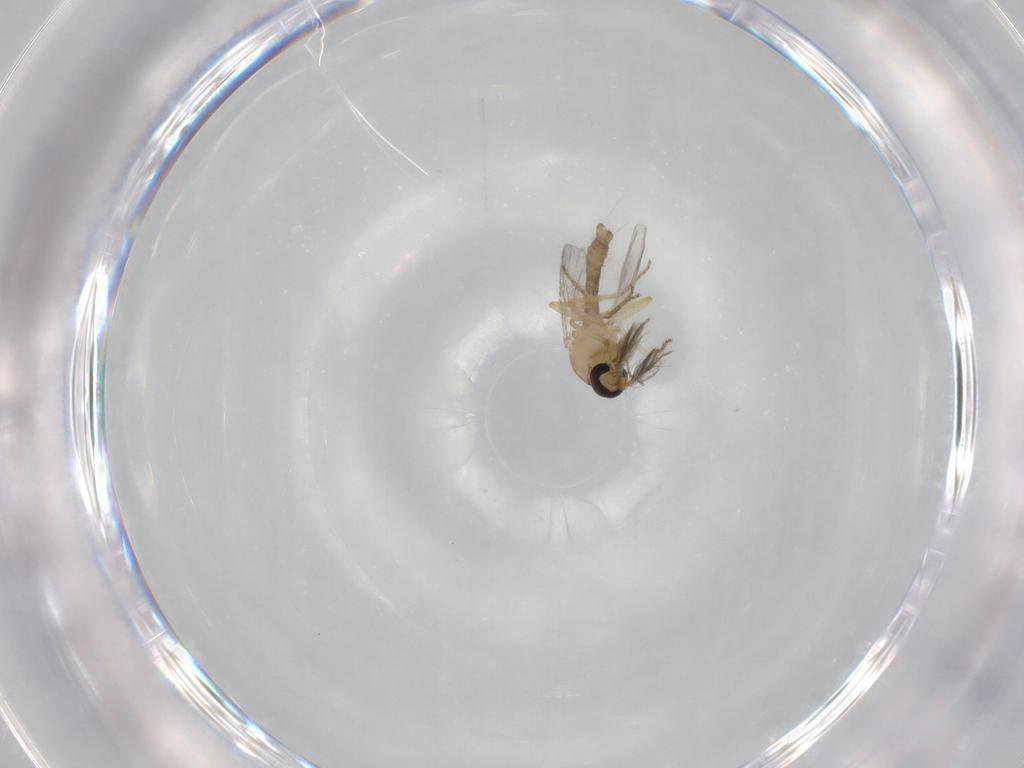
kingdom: Animalia
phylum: Arthropoda
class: Insecta
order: Diptera
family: Ceratopogonidae
